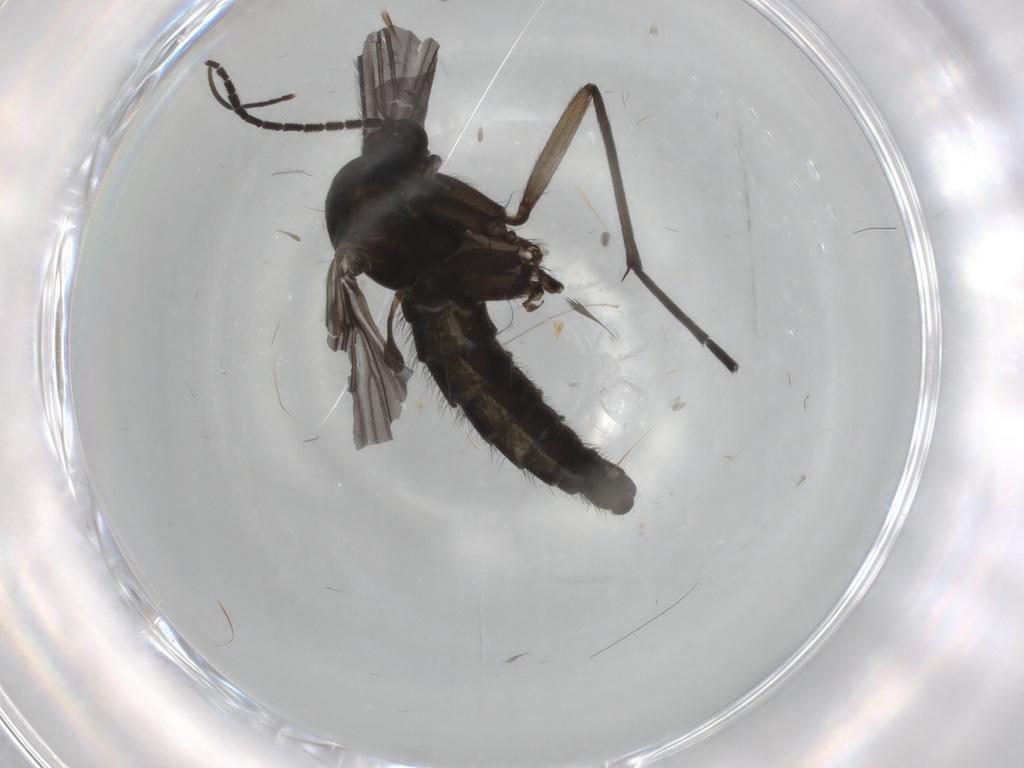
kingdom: Animalia
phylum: Arthropoda
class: Insecta
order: Diptera
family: Sciaridae
